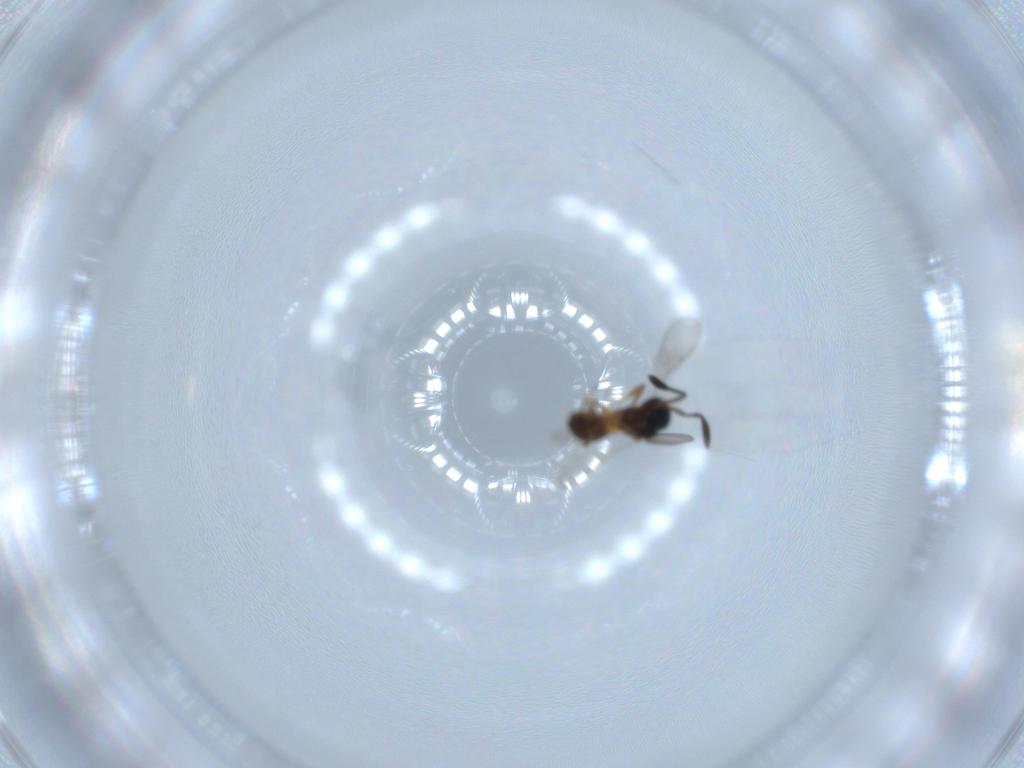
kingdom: Animalia
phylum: Arthropoda
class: Insecta
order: Hymenoptera
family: Scelionidae
